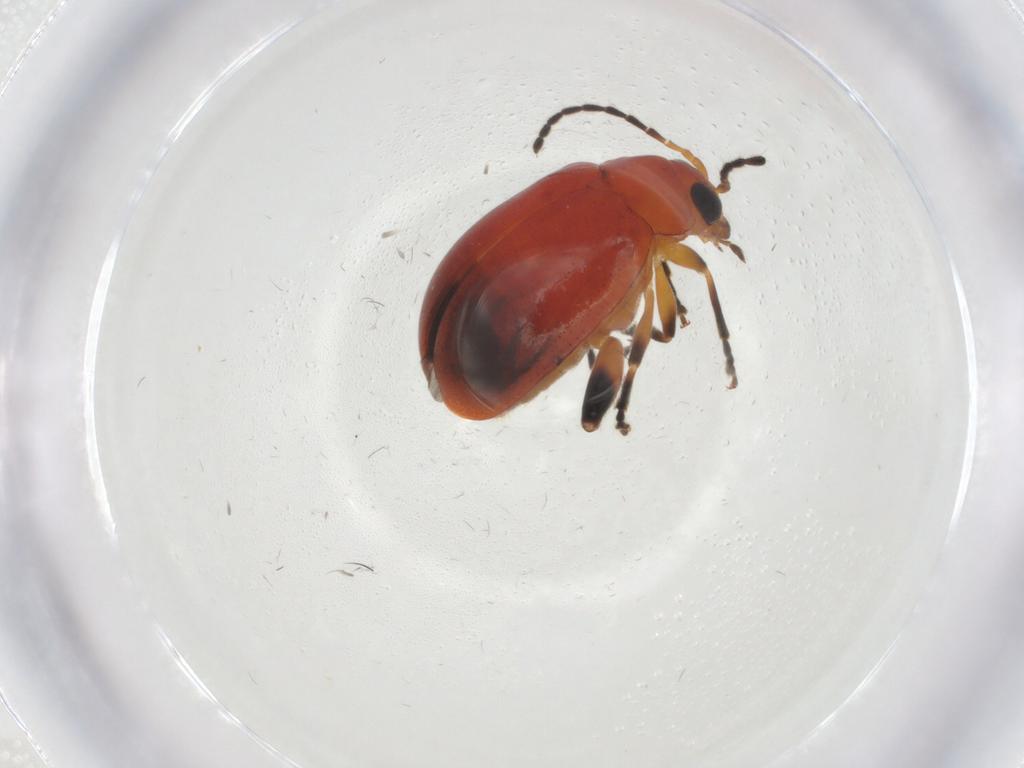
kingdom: Animalia
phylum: Arthropoda
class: Insecta
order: Coleoptera
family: Chrysomelidae
